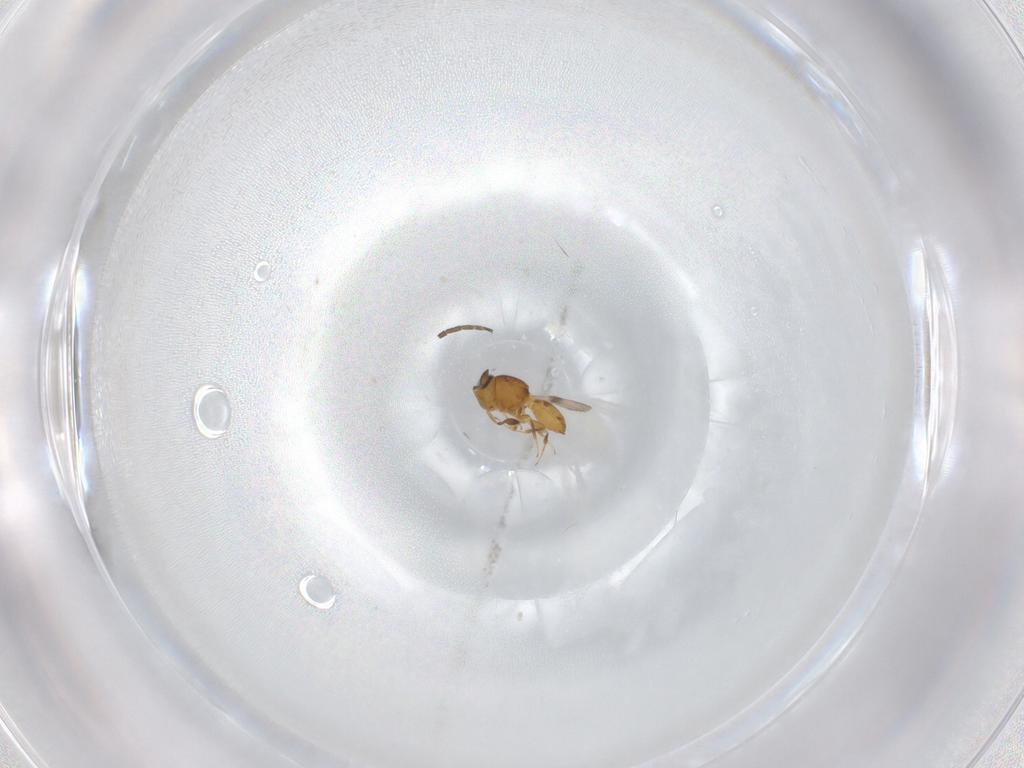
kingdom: Animalia
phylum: Arthropoda
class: Insecta
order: Hymenoptera
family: Scelionidae
